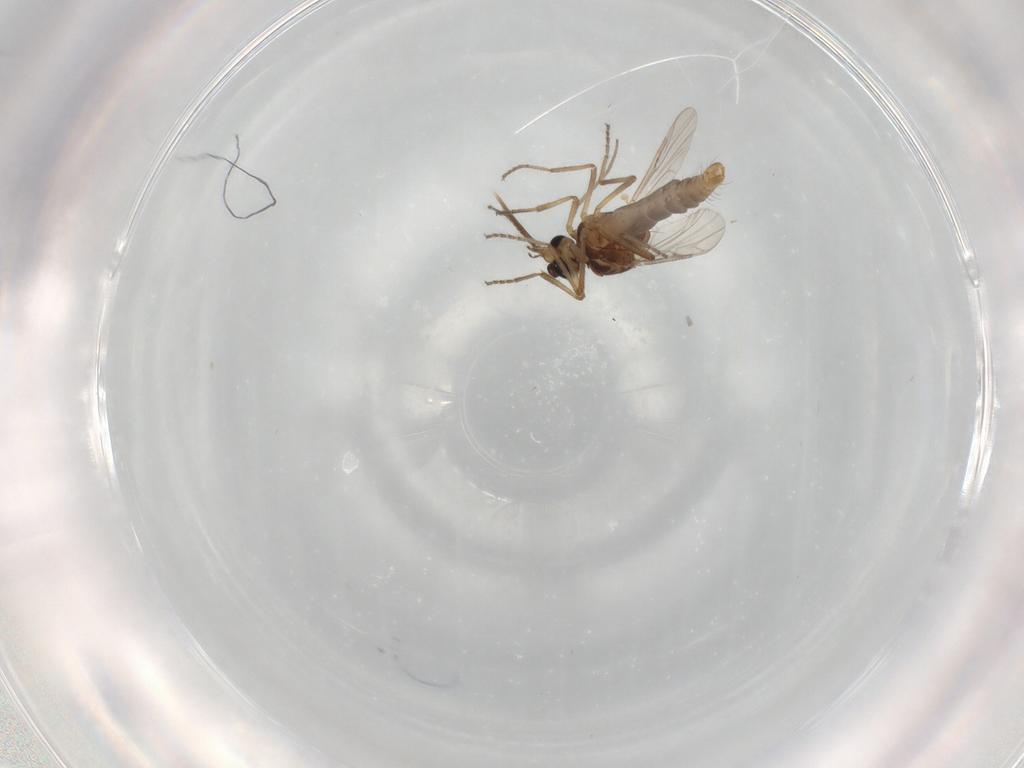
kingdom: Animalia
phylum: Arthropoda
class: Insecta
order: Diptera
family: Ceratopogonidae
